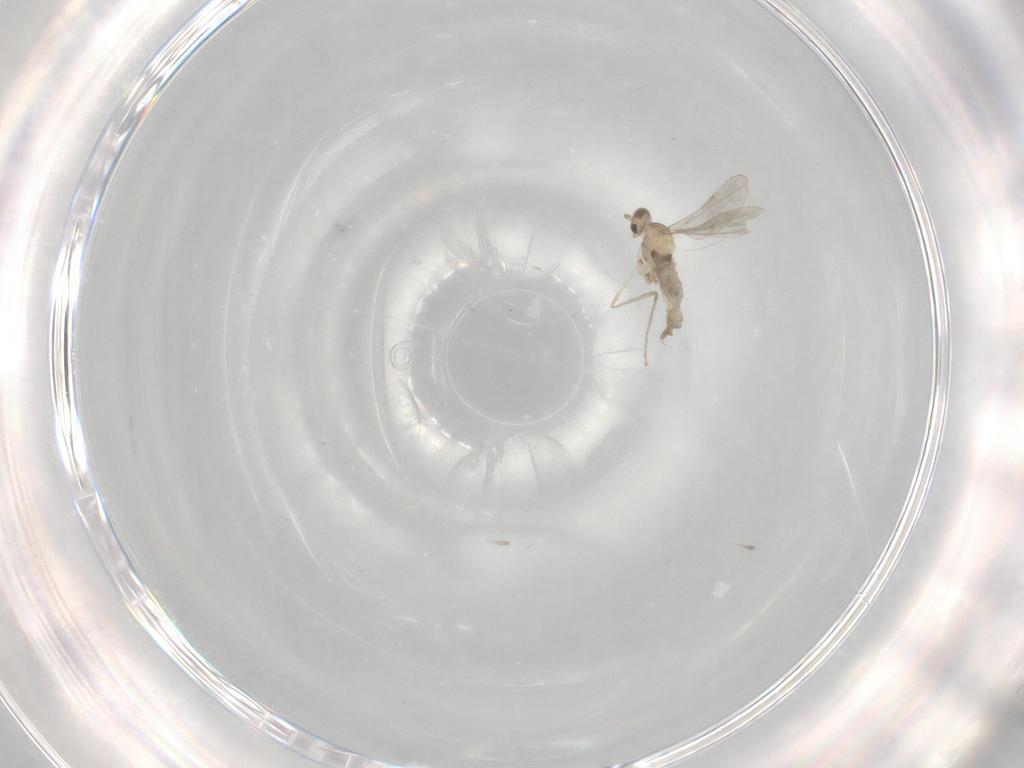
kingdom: Animalia
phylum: Arthropoda
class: Insecta
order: Diptera
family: Cecidomyiidae
